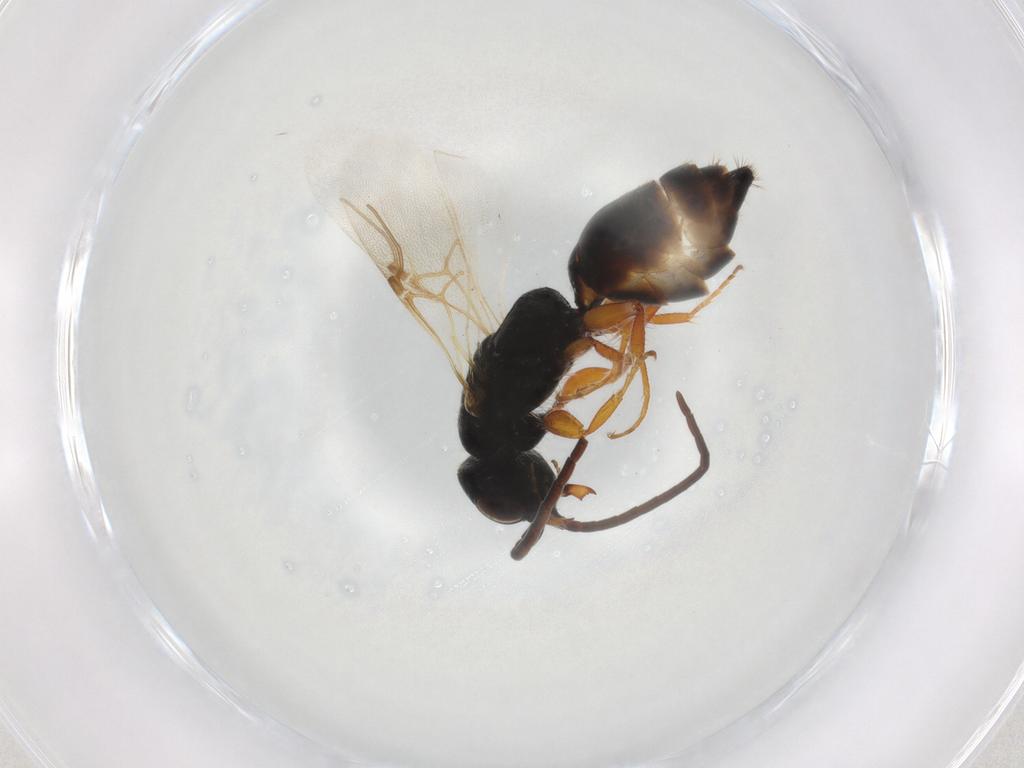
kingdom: Animalia
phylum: Arthropoda
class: Insecta
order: Hymenoptera
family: Bethylidae
